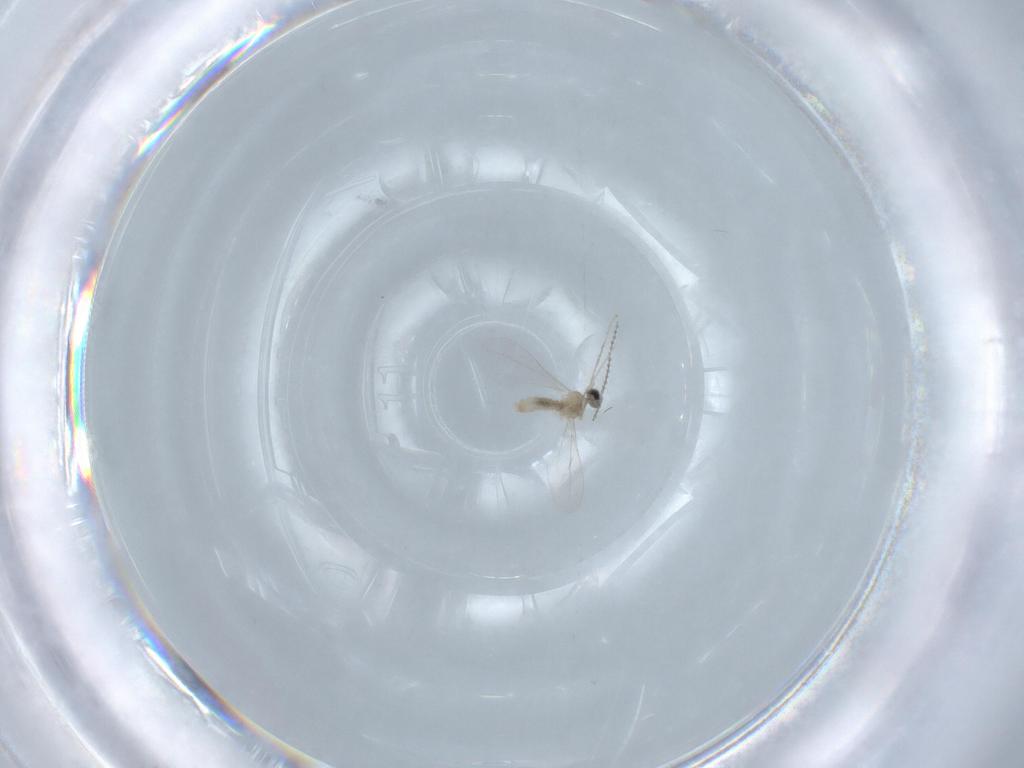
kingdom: Animalia
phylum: Arthropoda
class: Insecta
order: Diptera
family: Cecidomyiidae
